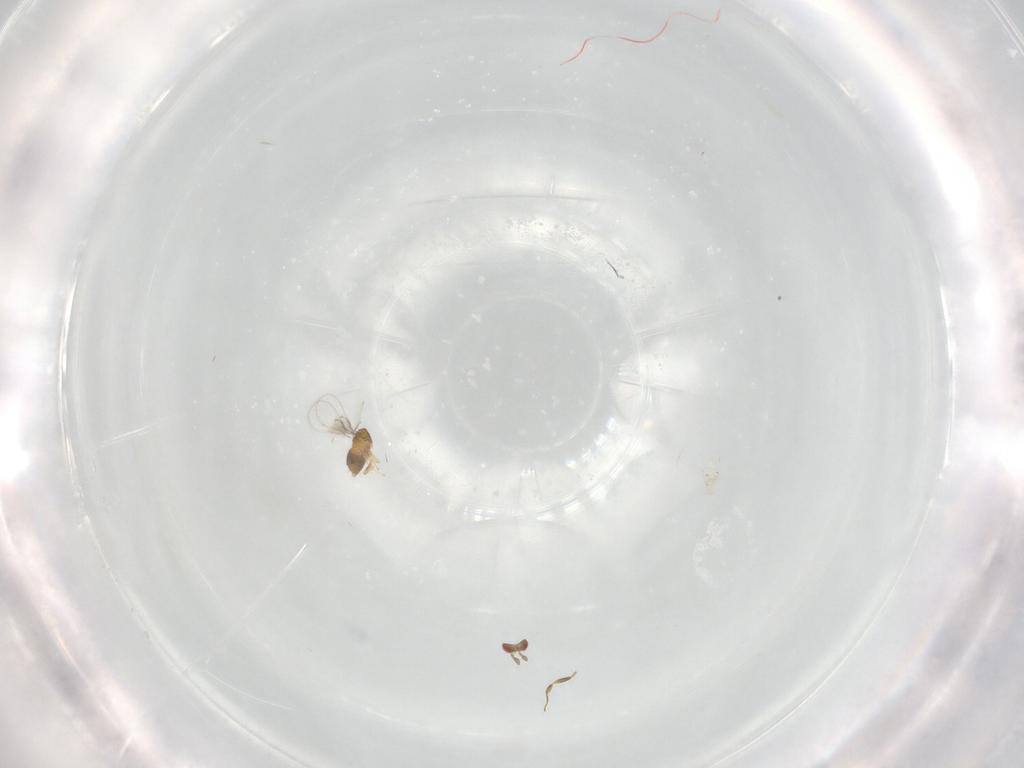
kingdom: Animalia
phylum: Arthropoda
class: Insecta
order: Hymenoptera
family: Trichogrammatidae
